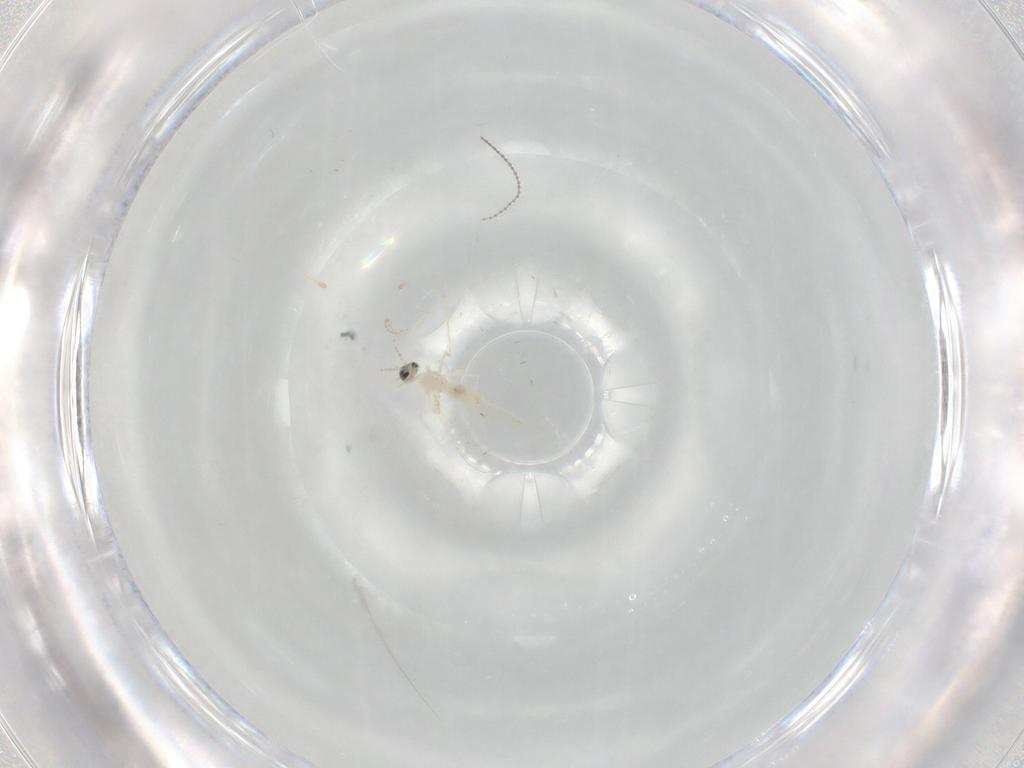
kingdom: Animalia
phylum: Arthropoda
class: Insecta
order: Diptera
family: Cecidomyiidae
